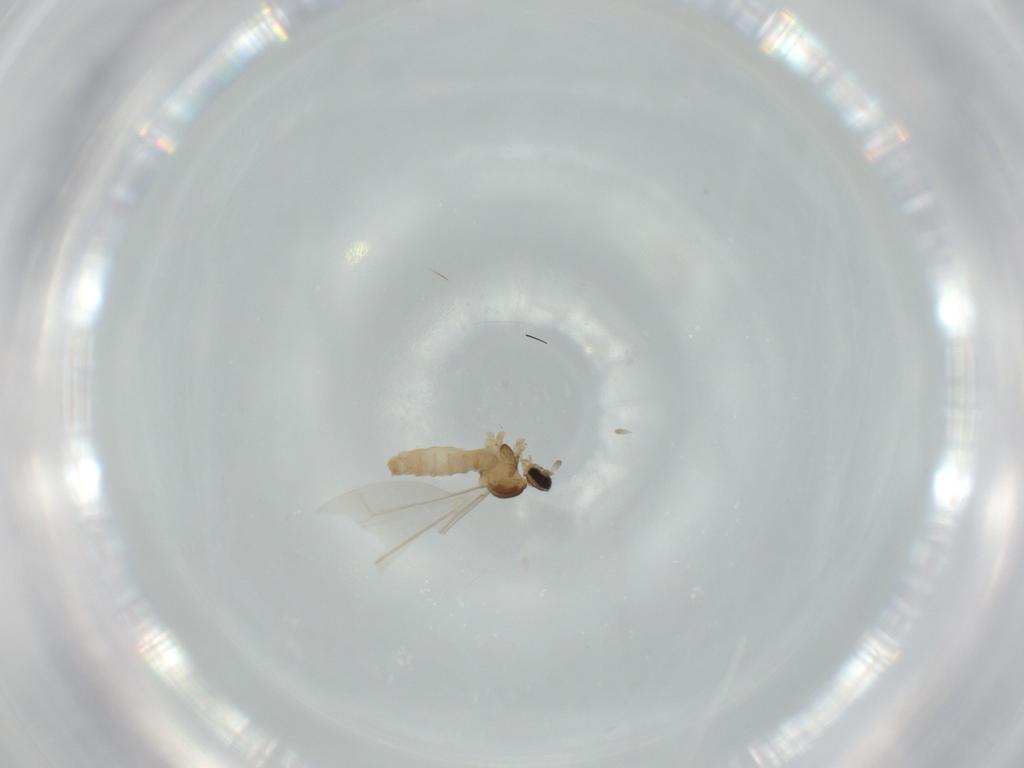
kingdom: Animalia
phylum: Arthropoda
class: Insecta
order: Diptera
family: Cecidomyiidae
